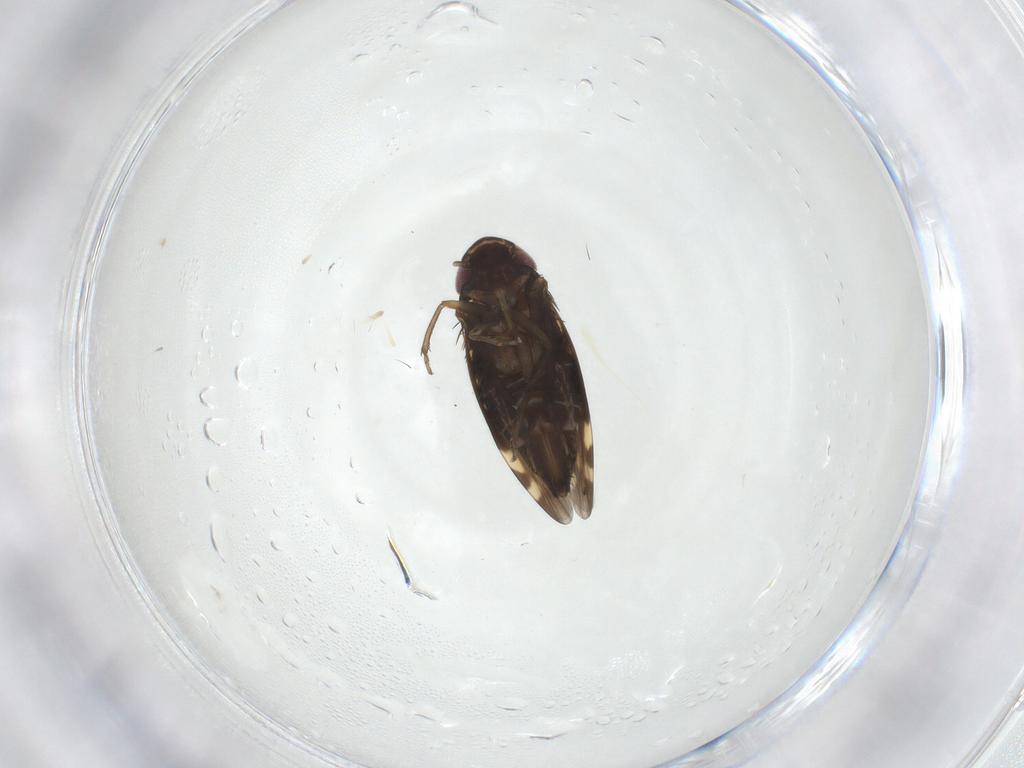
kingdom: Animalia
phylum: Arthropoda
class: Insecta
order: Hemiptera
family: Cicadellidae
